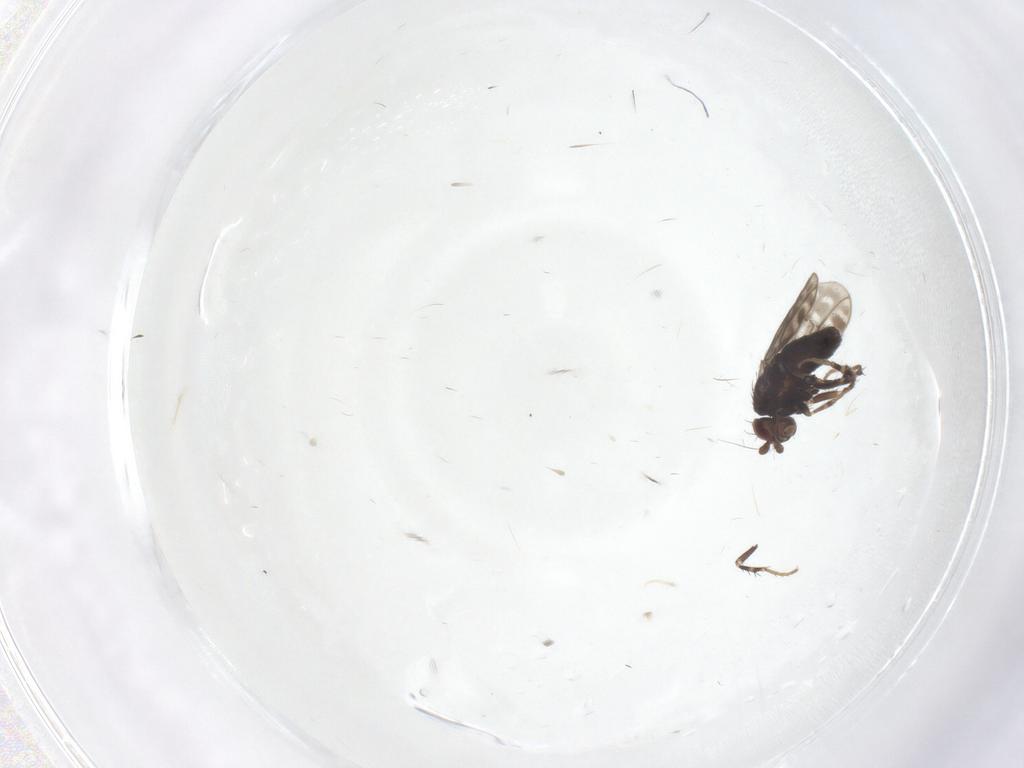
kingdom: Animalia
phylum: Arthropoda
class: Insecta
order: Diptera
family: Sphaeroceridae
